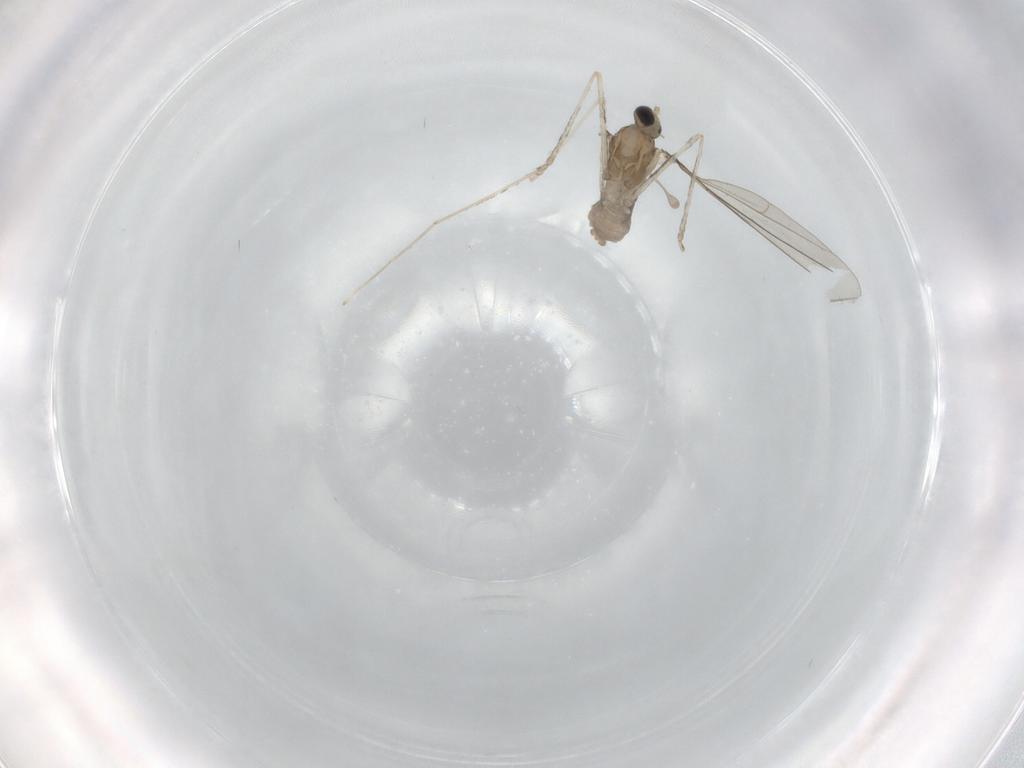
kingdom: Animalia
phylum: Arthropoda
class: Insecta
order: Diptera
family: Cecidomyiidae
